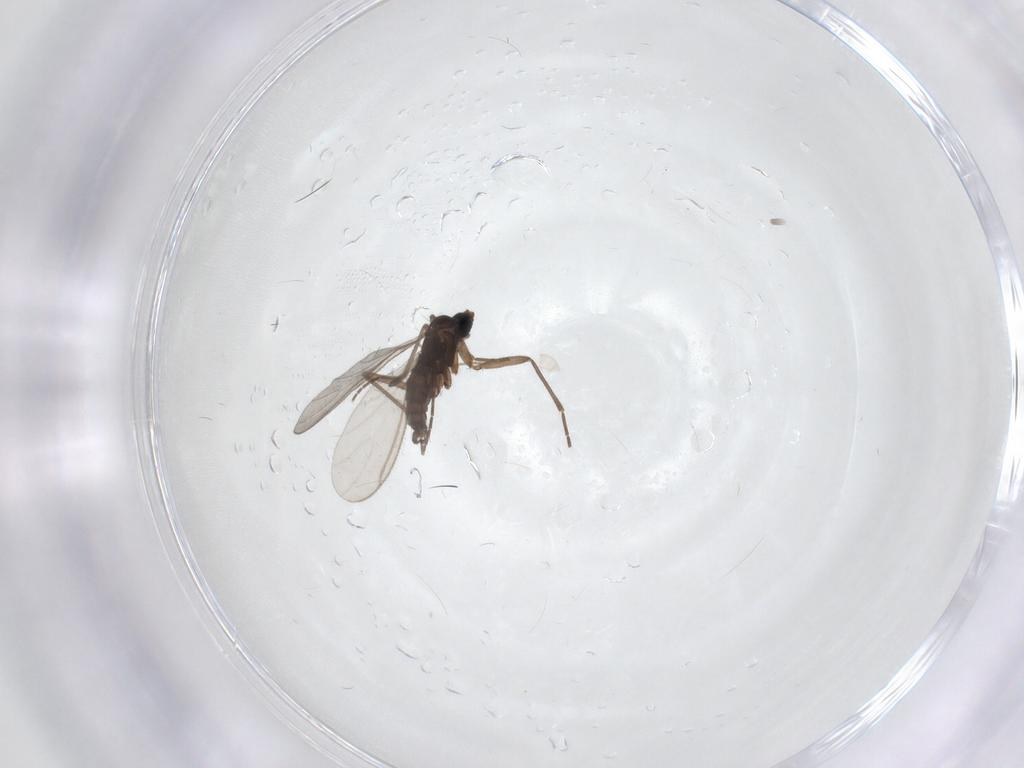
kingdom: Animalia
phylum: Arthropoda
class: Insecta
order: Diptera
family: Sciaridae
